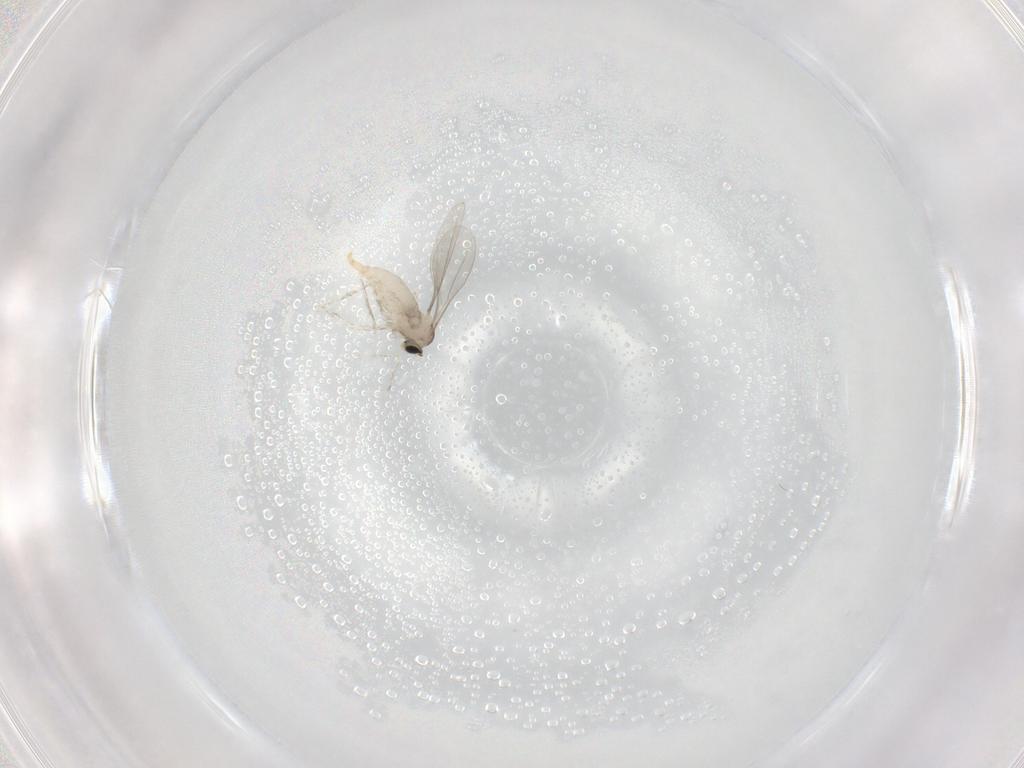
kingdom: Animalia
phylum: Arthropoda
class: Insecta
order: Diptera
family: Cecidomyiidae
